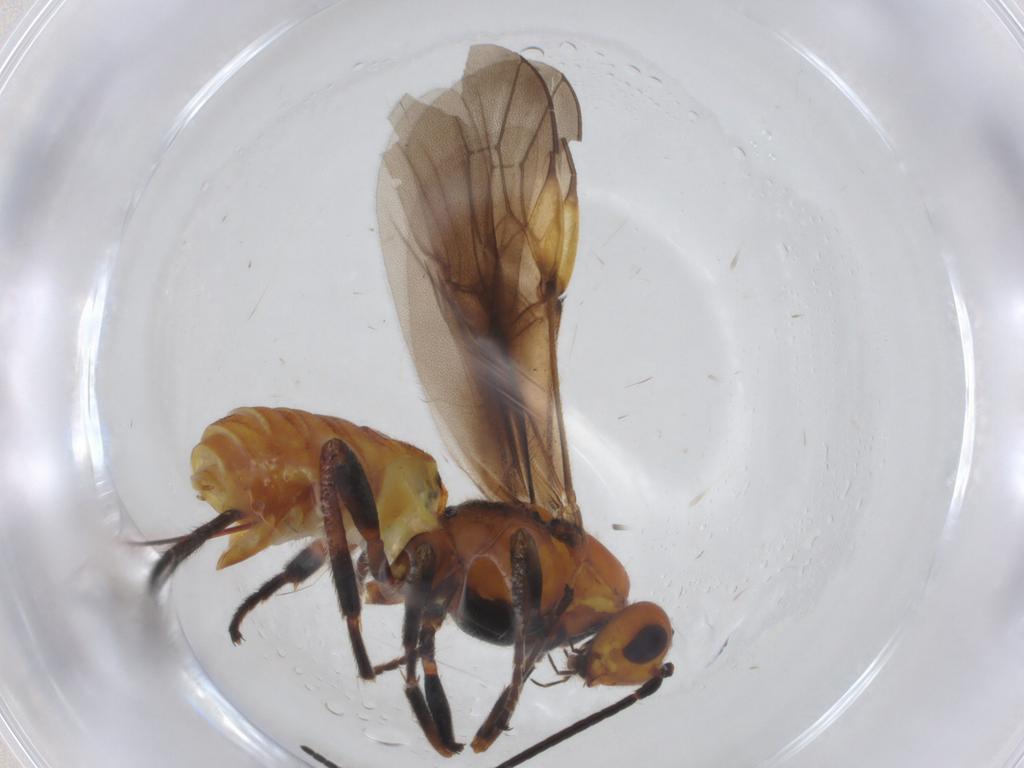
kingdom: Animalia
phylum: Arthropoda
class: Insecta
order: Hymenoptera
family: Braconidae
